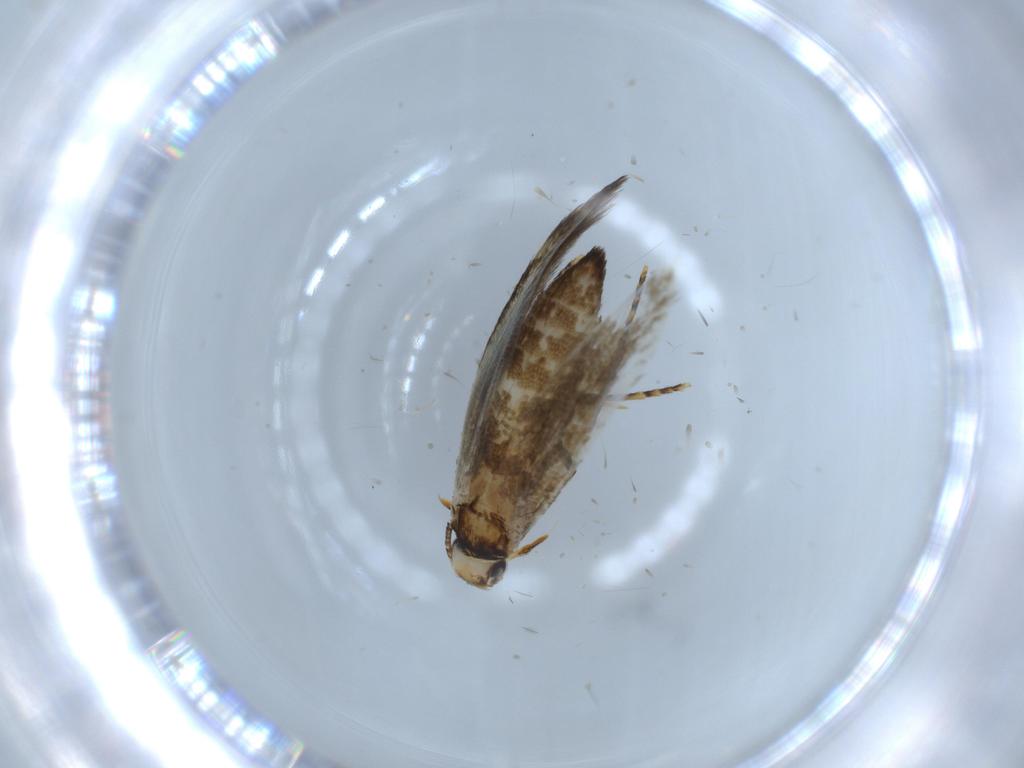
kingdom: Animalia
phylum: Arthropoda
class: Insecta
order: Lepidoptera
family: Tineidae
